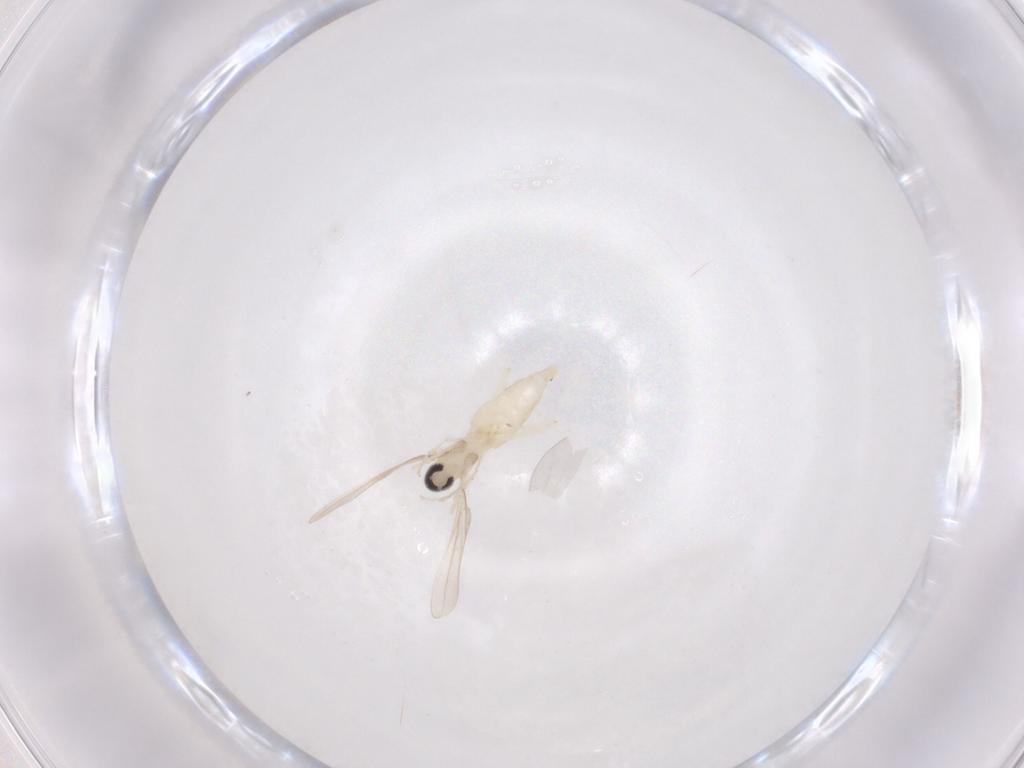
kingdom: Animalia
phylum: Arthropoda
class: Insecta
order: Diptera
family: Cecidomyiidae
